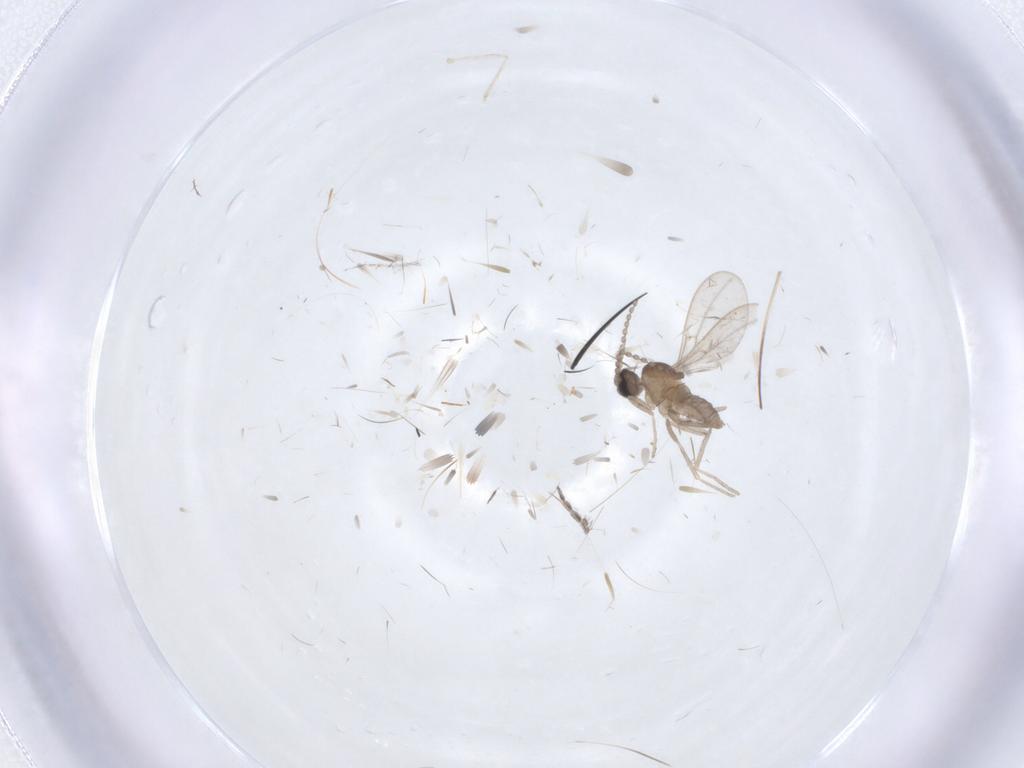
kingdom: Animalia
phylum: Arthropoda
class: Insecta
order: Diptera
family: Cecidomyiidae
